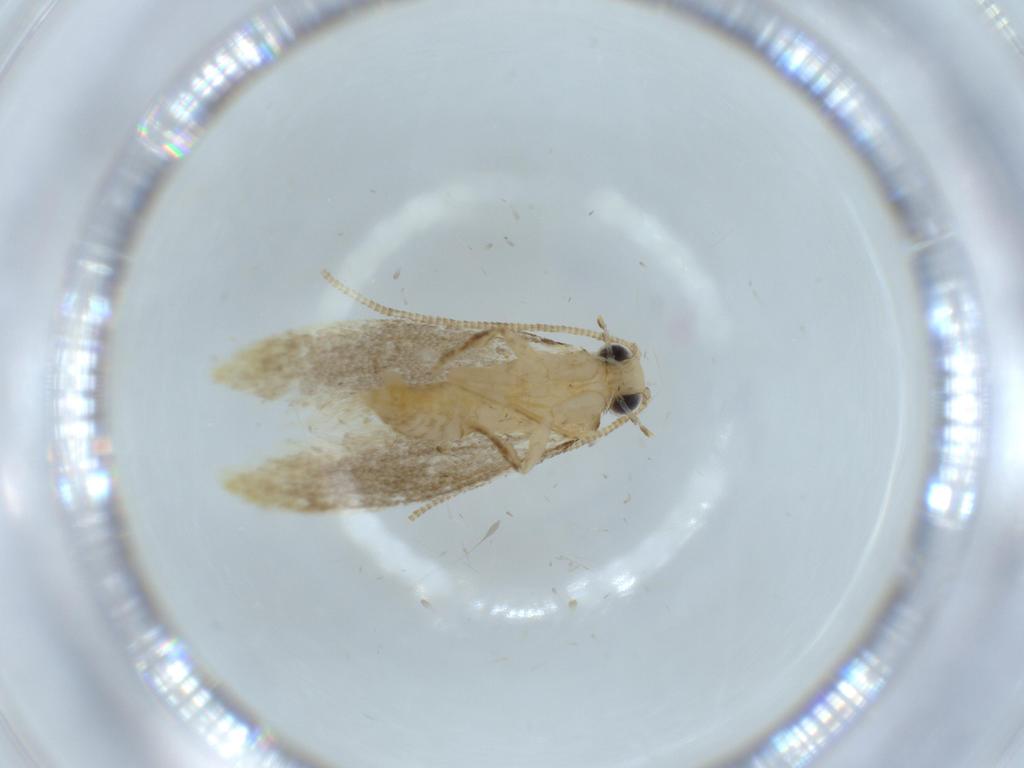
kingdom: Animalia
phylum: Arthropoda
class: Insecta
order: Lepidoptera
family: Tineidae
